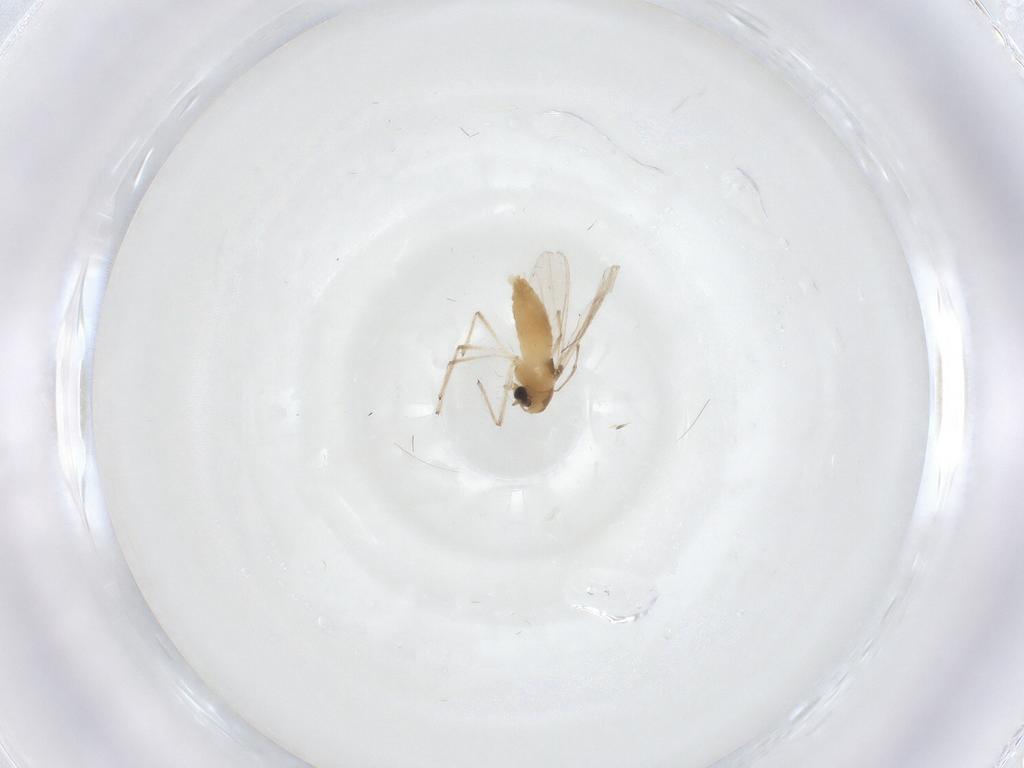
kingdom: Animalia
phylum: Arthropoda
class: Insecta
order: Diptera
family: Chironomidae
